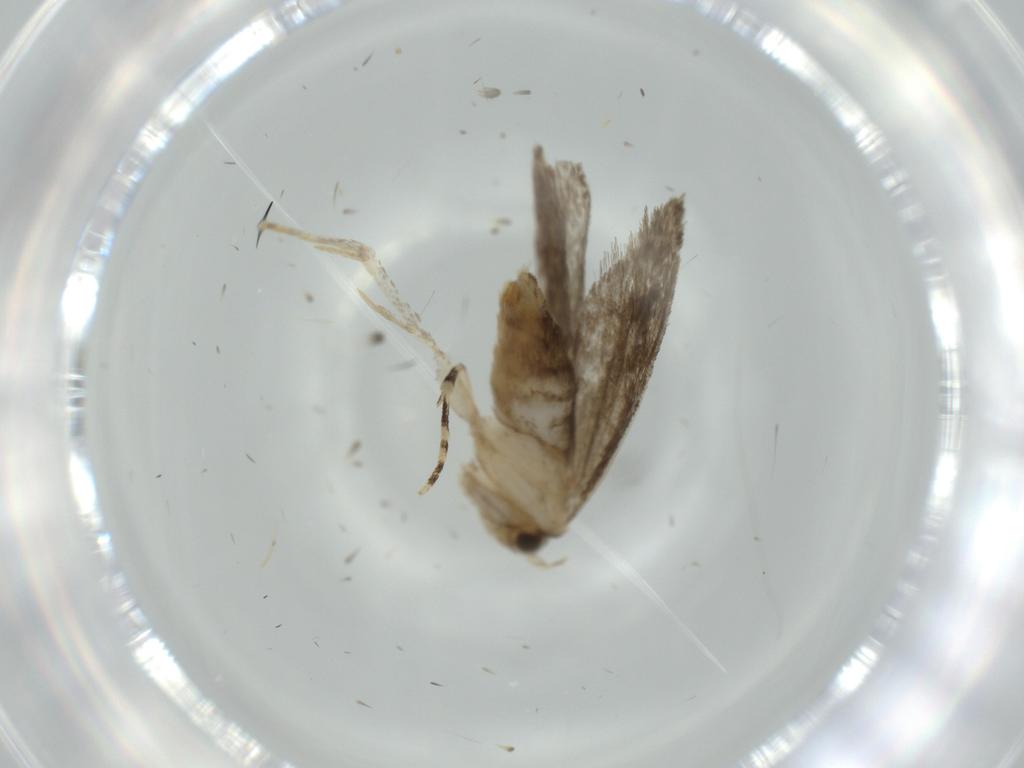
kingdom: Animalia
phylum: Arthropoda
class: Insecta
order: Lepidoptera
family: Tineidae
